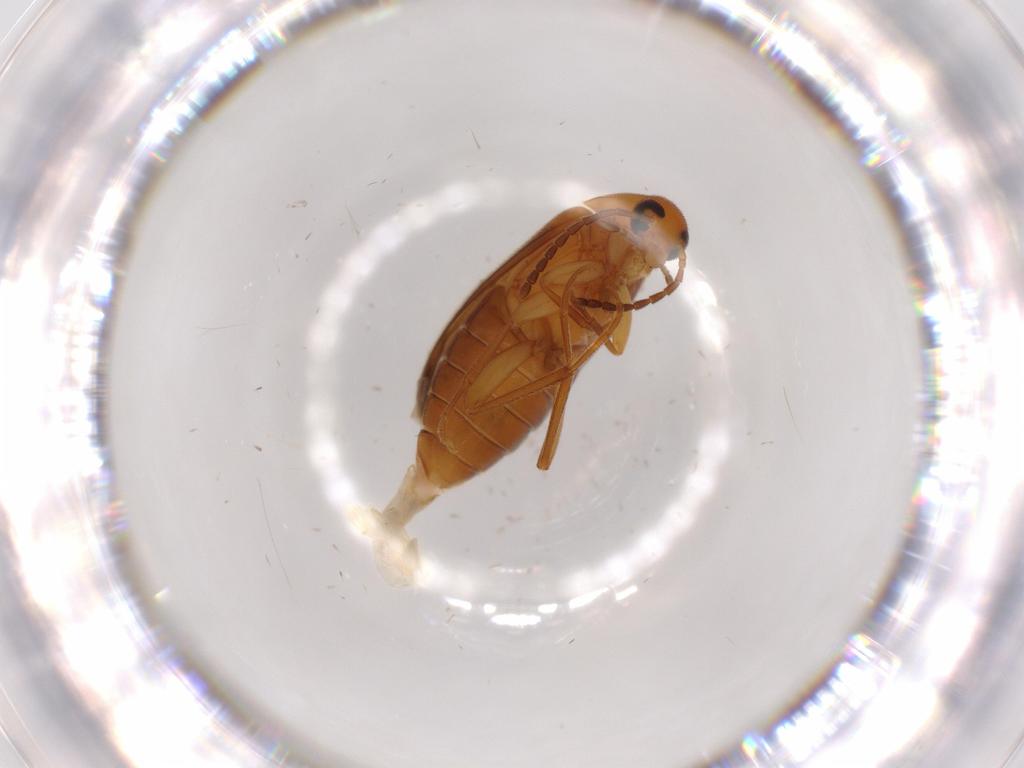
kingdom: Animalia
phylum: Arthropoda
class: Insecta
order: Coleoptera
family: Scraptiidae
